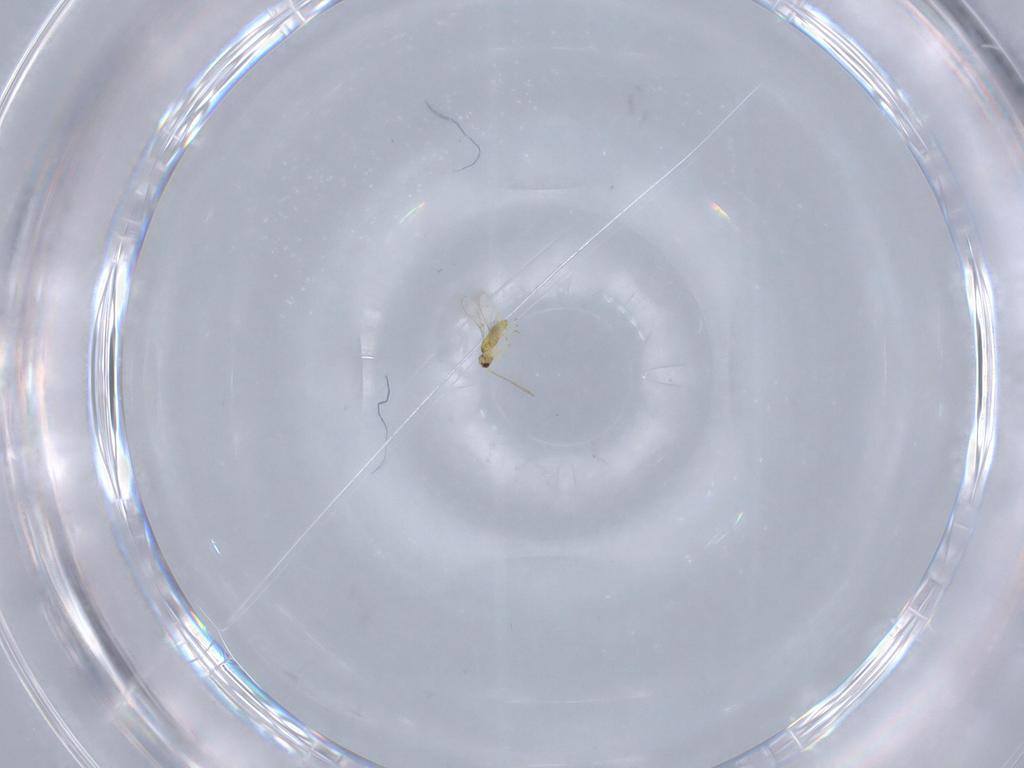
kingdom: Animalia
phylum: Arthropoda
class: Insecta
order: Hymenoptera
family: Mymaridae
